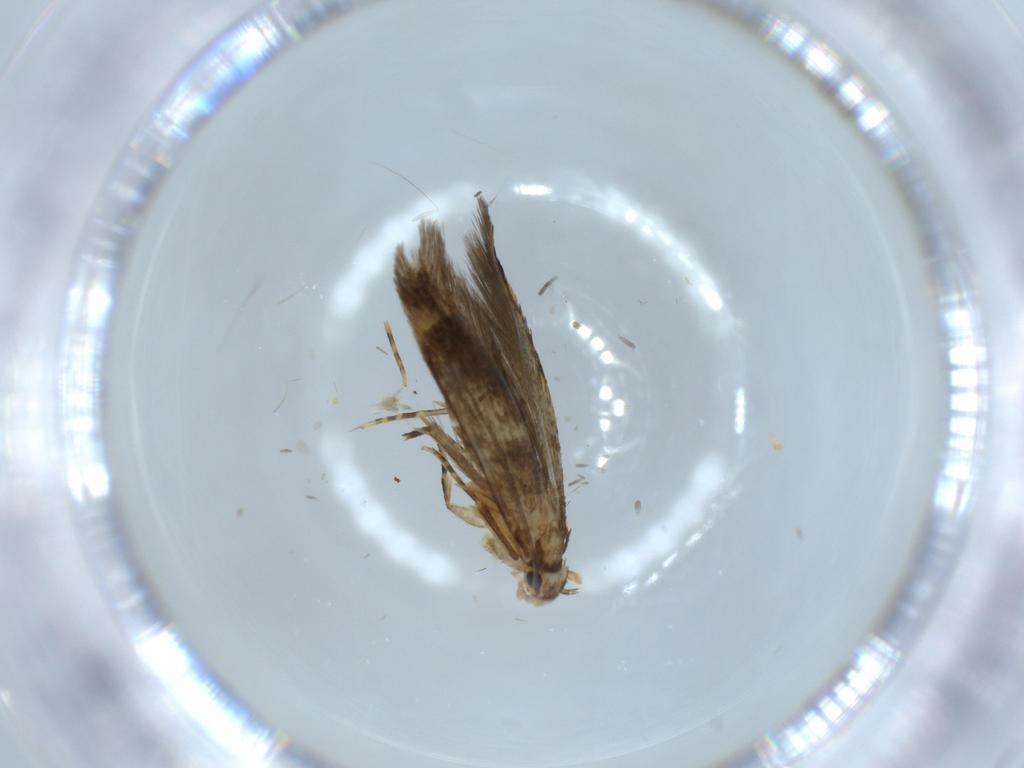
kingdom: Animalia
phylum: Arthropoda
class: Insecta
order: Lepidoptera
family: Tineidae
